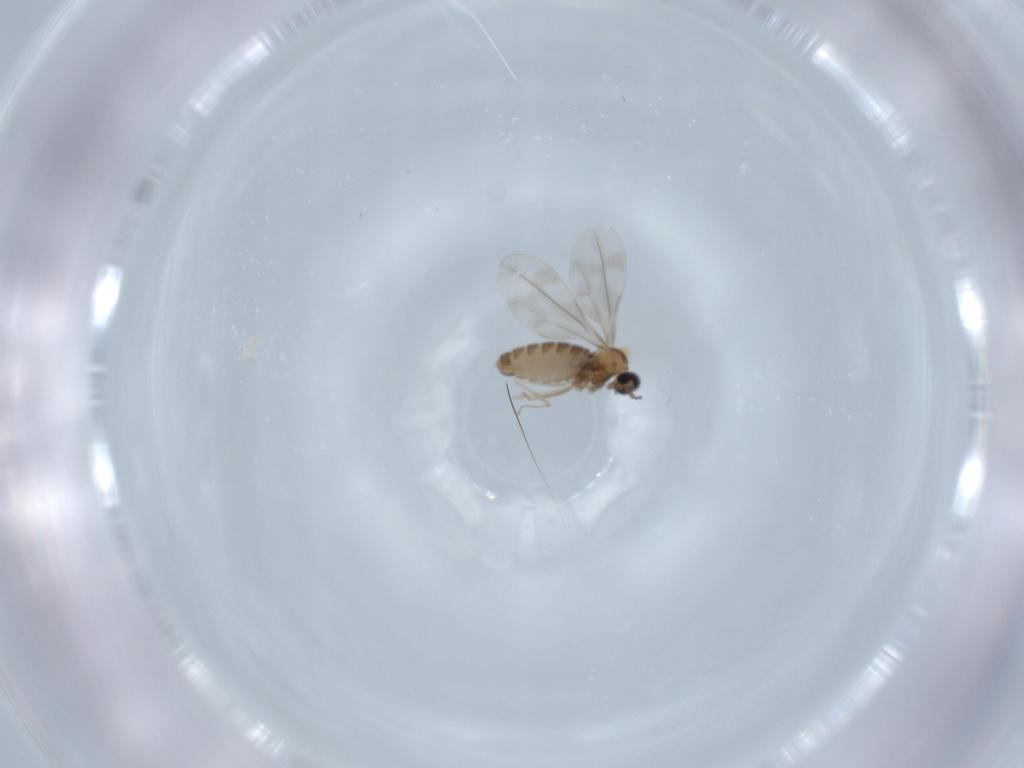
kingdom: Animalia
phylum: Arthropoda
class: Insecta
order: Diptera
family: Cecidomyiidae
